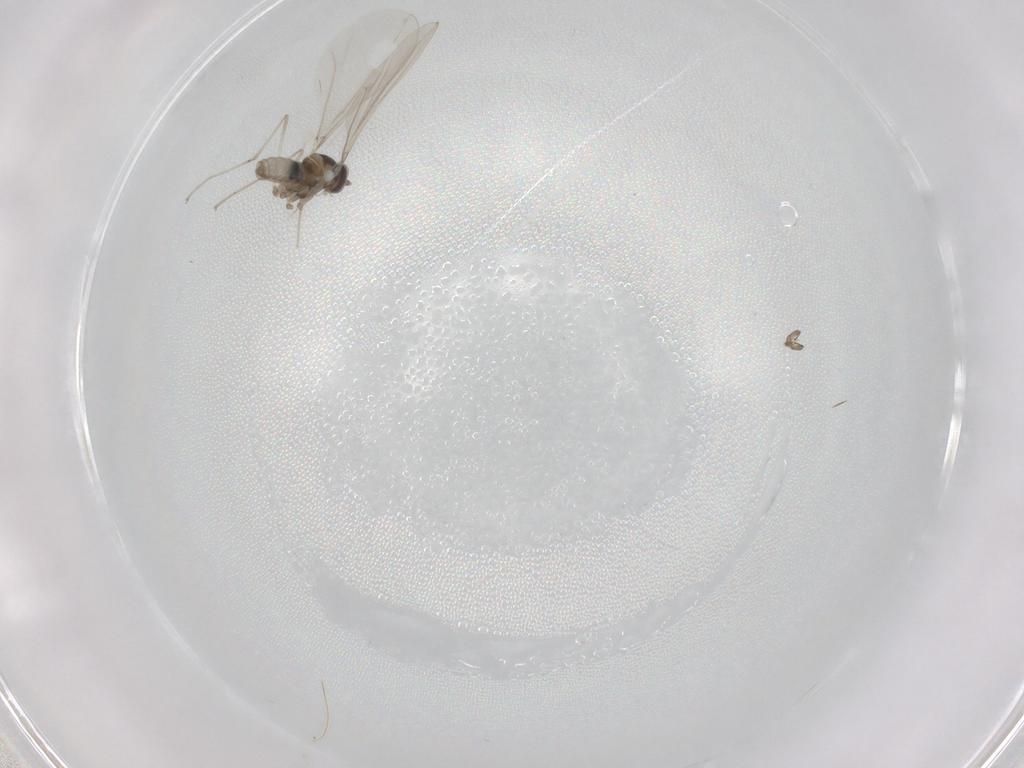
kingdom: Animalia
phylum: Arthropoda
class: Insecta
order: Diptera
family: Cecidomyiidae
